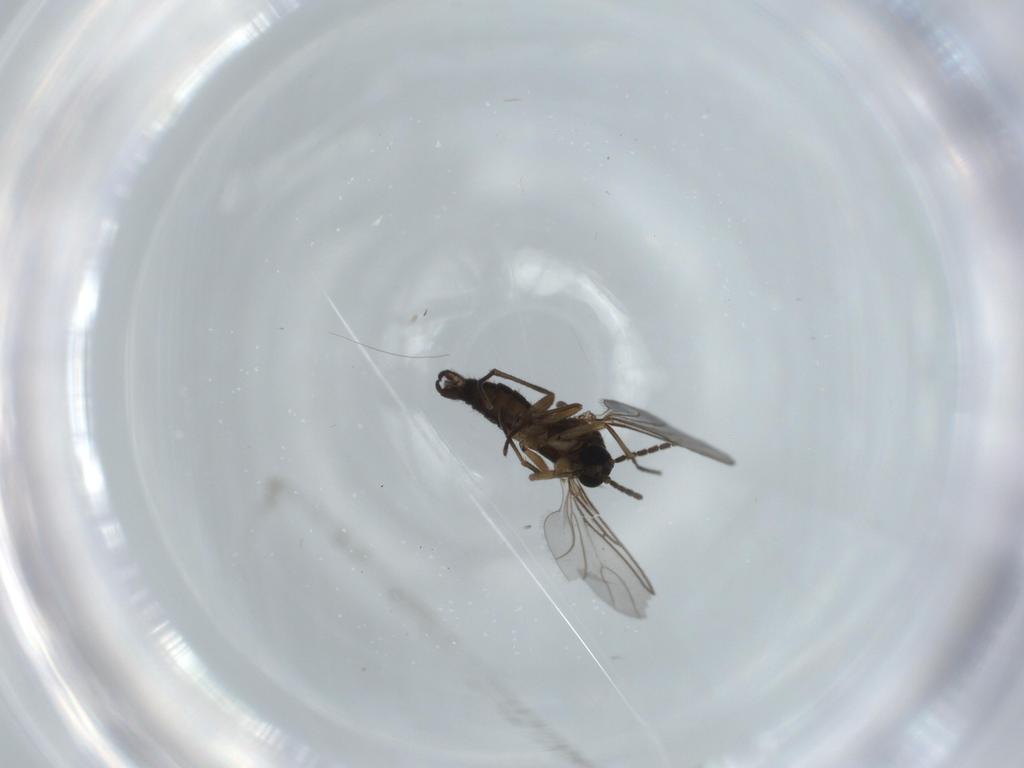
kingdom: Animalia
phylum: Arthropoda
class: Insecta
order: Diptera
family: Sciaridae
